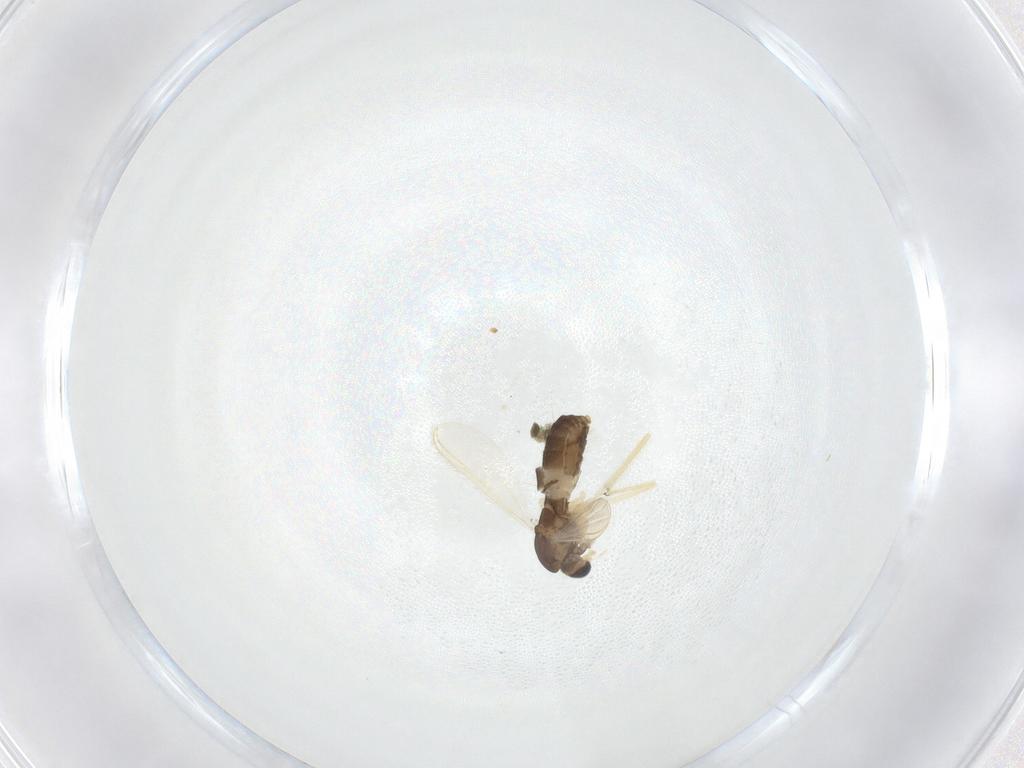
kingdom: Animalia
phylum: Arthropoda
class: Insecta
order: Diptera
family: Chironomidae
